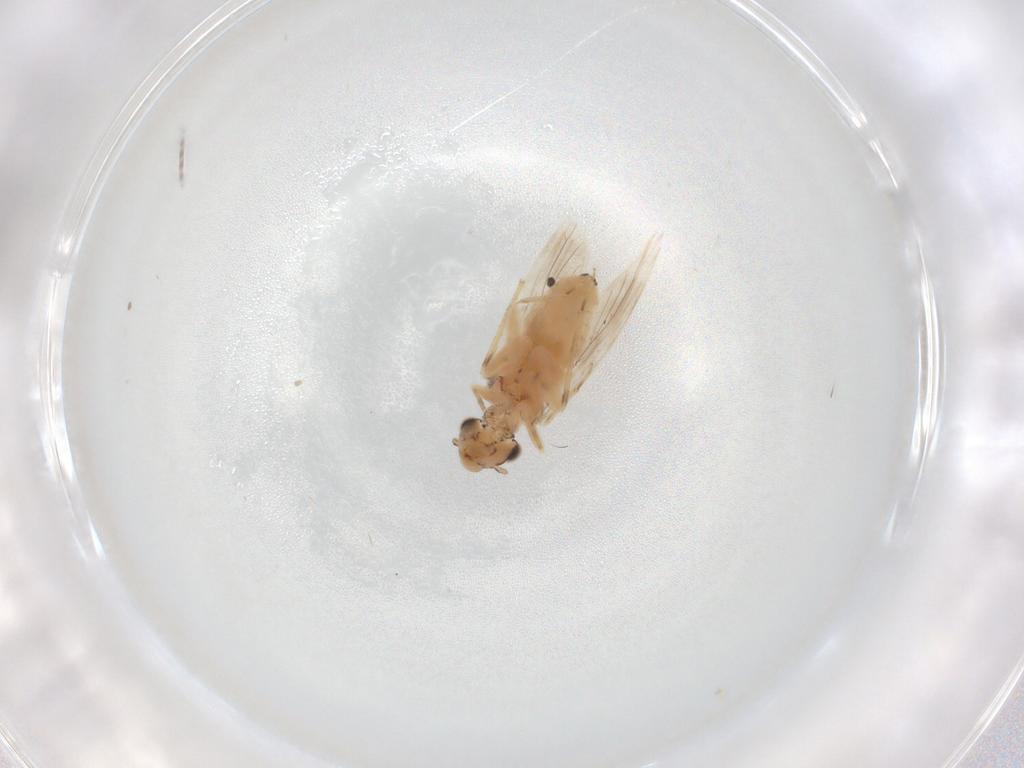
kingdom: Animalia
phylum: Arthropoda
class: Insecta
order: Psocodea
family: Lepidopsocidae
